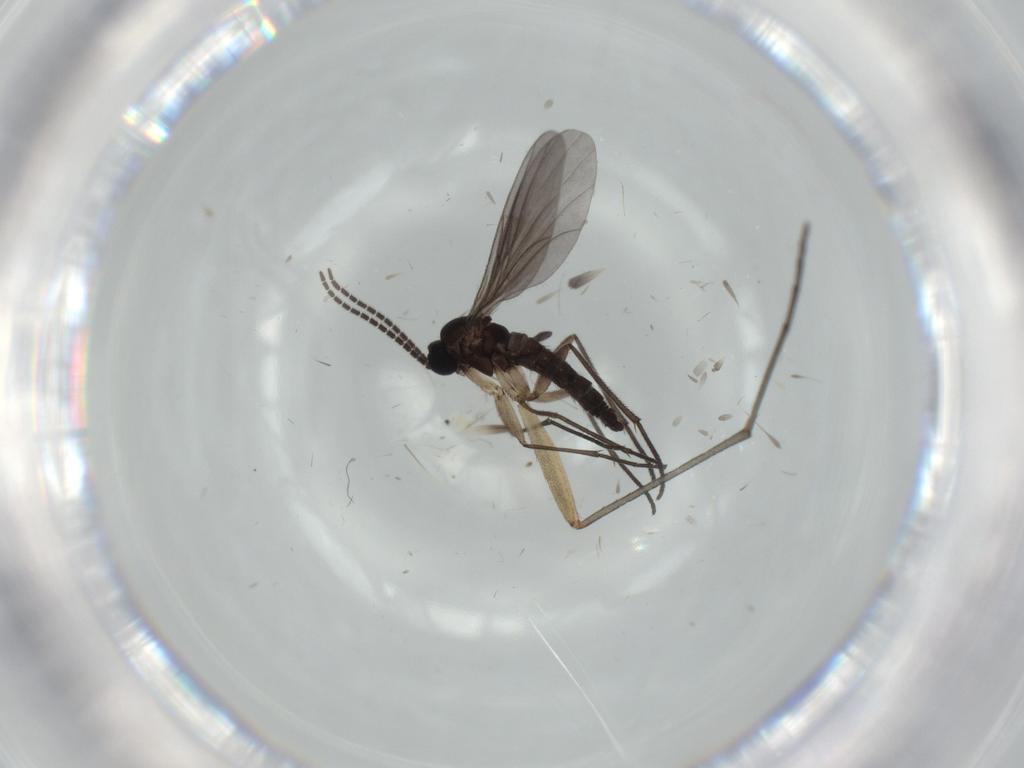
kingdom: Animalia
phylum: Arthropoda
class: Insecta
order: Diptera
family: Sciaridae
